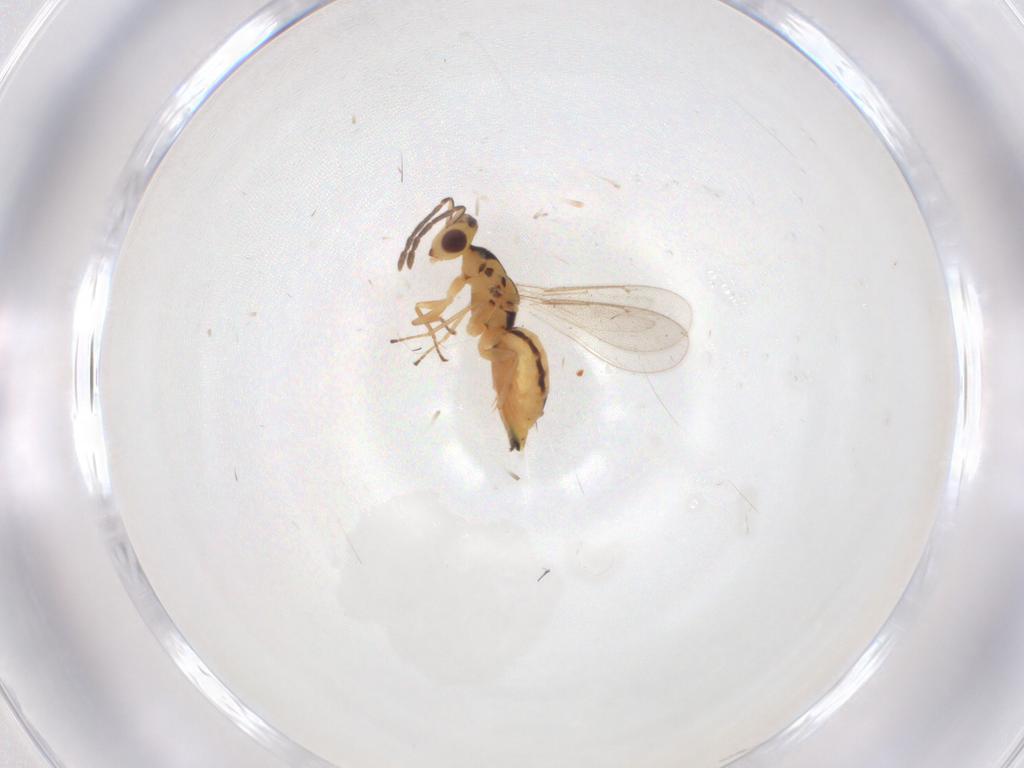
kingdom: Animalia
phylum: Arthropoda
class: Insecta
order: Hymenoptera
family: Eulophidae
